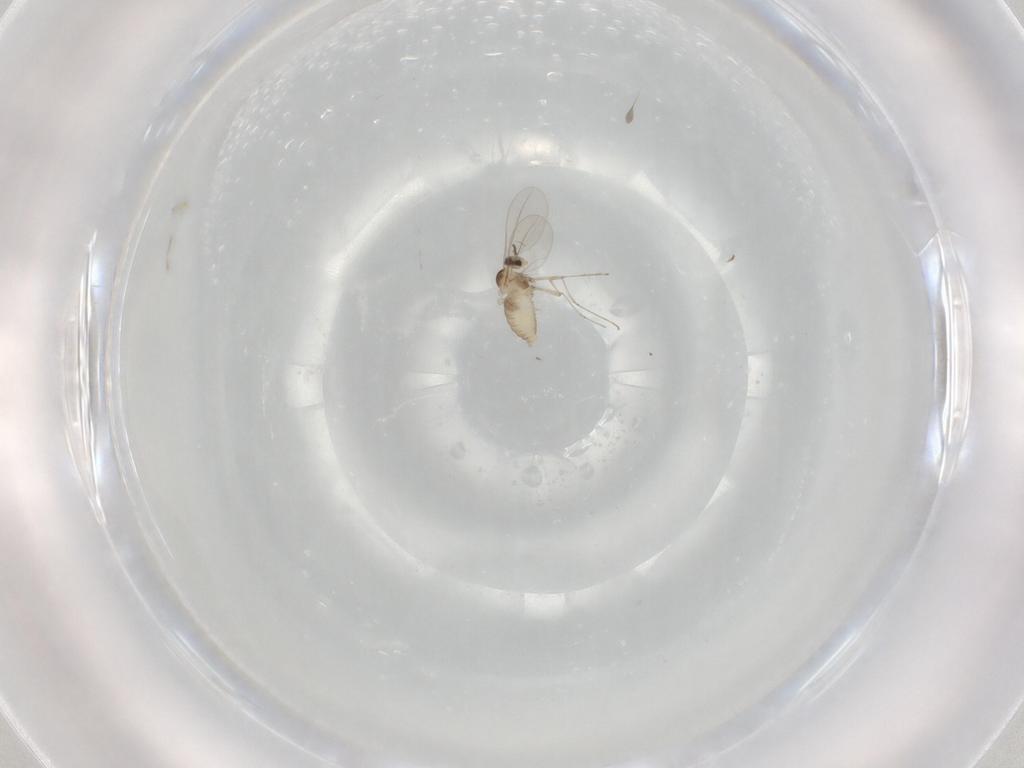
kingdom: Animalia
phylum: Arthropoda
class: Insecta
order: Diptera
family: Cecidomyiidae
